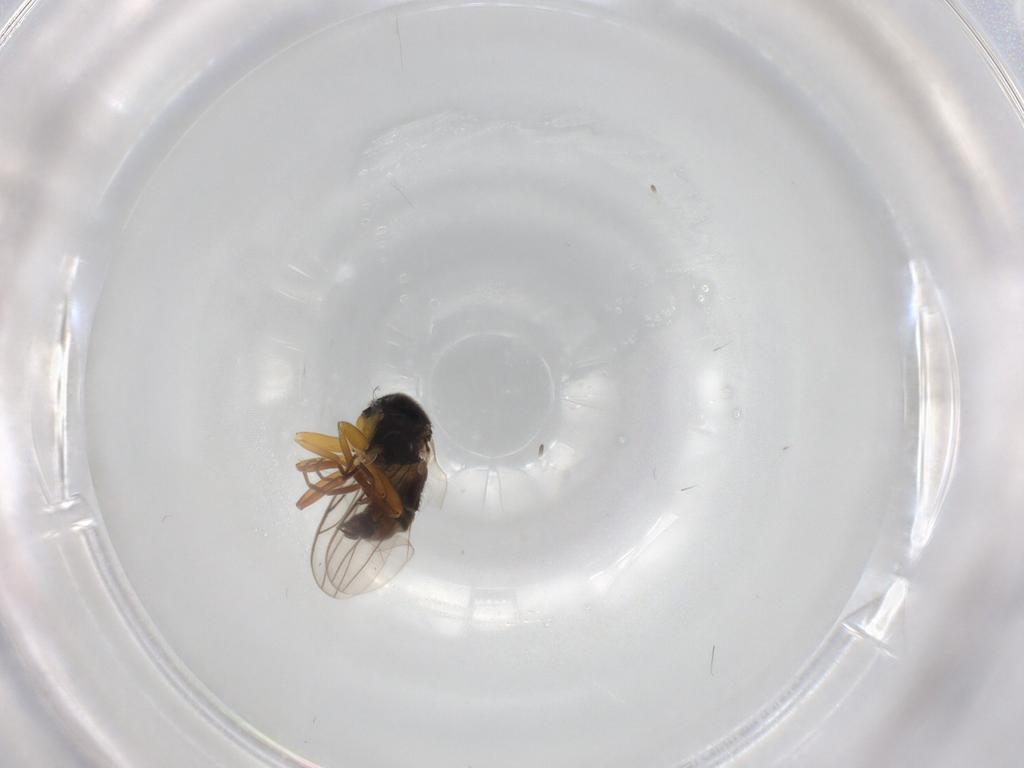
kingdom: Animalia
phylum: Arthropoda
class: Insecta
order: Diptera
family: Hybotidae
